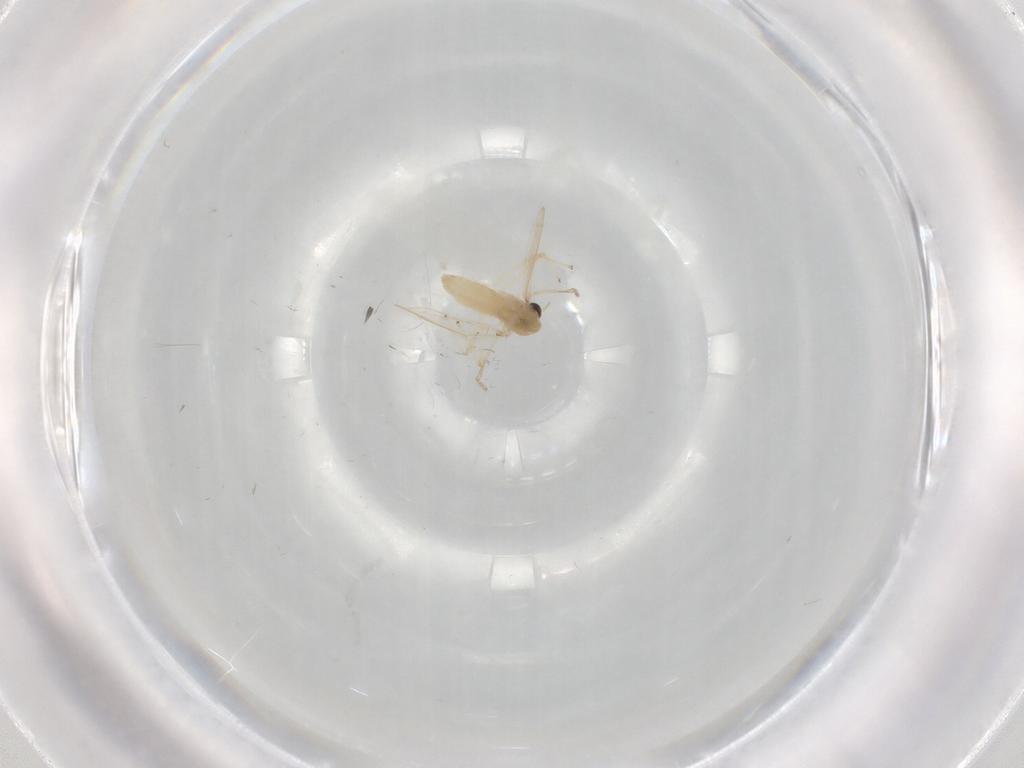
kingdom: Animalia
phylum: Arthropoda
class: Insecta
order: Diptera
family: Chironomidae
